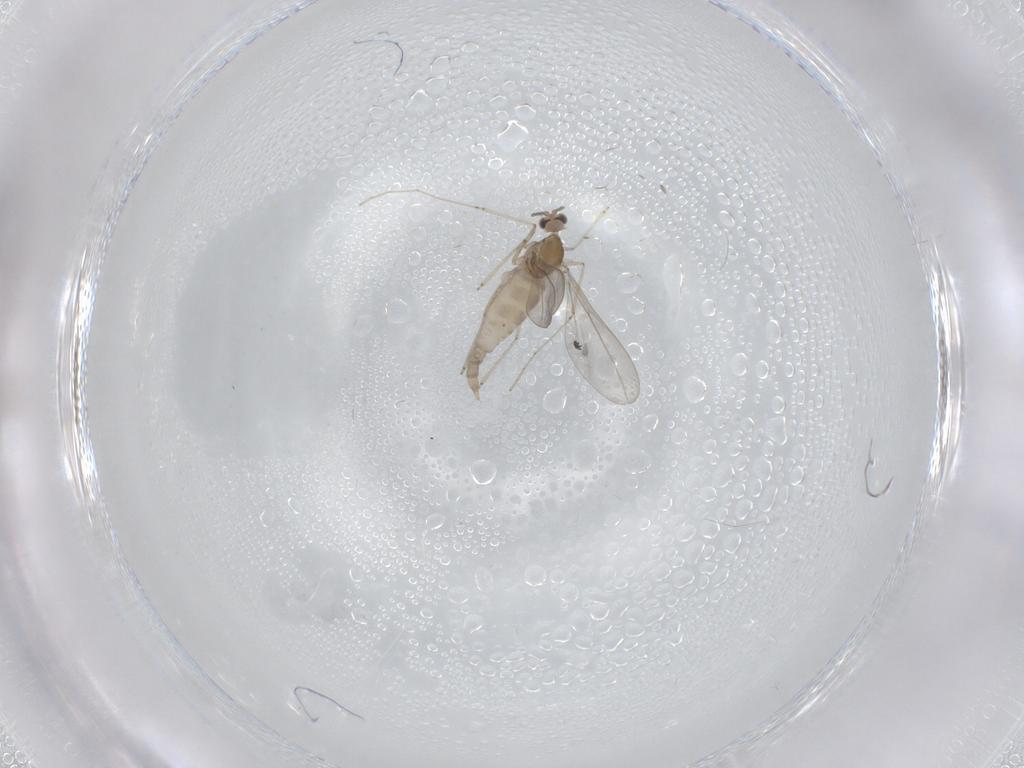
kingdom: Animalia
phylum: Arthropoda
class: Insecta
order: Diptera
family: Cecidomyiidae
